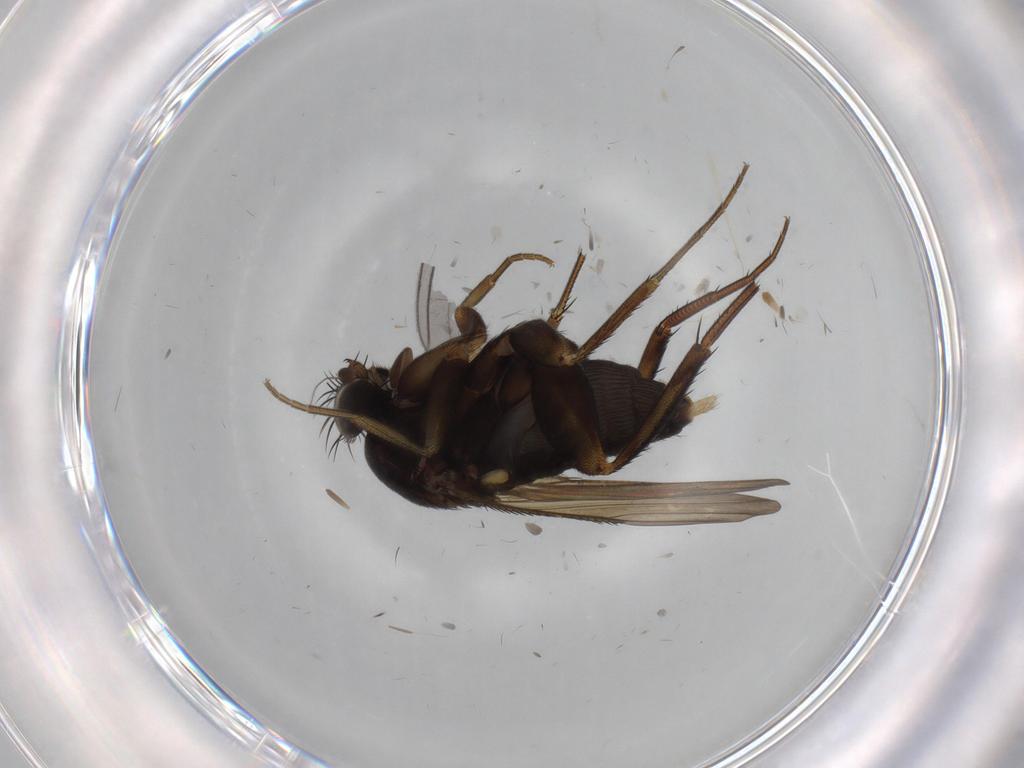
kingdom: Animalia
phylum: Arthropoda
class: Insecta
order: Diptera
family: Phoridae
